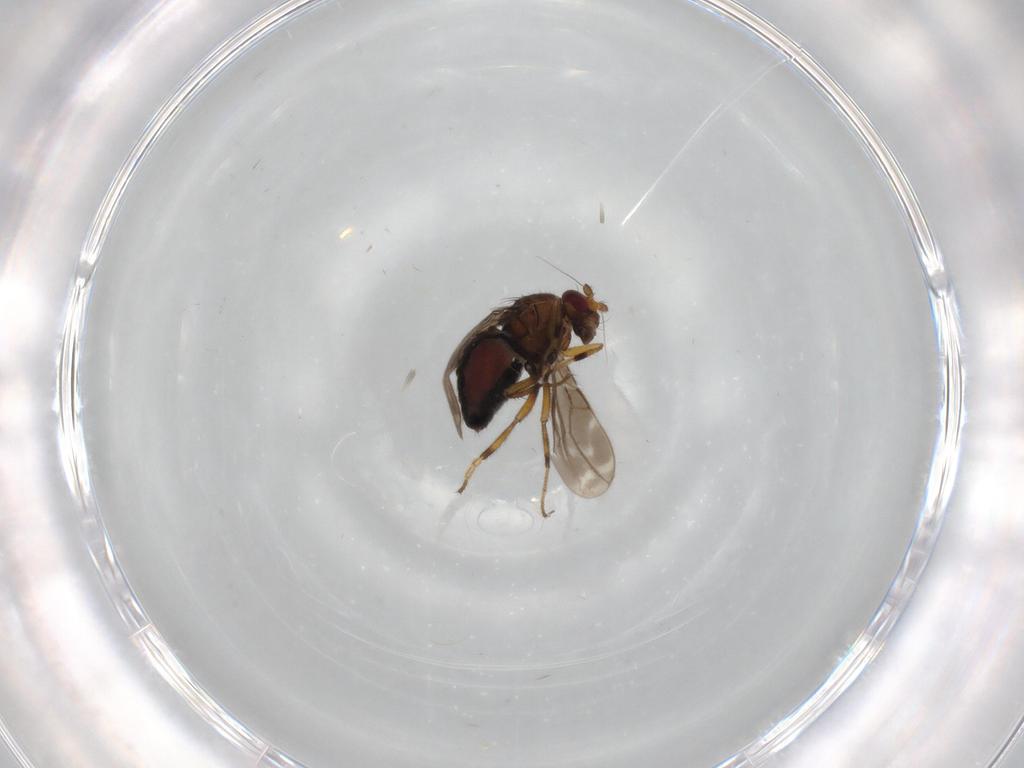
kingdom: Animalia
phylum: Arthropoda
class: Insecta
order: Diptera
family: Sphaeroceridae
